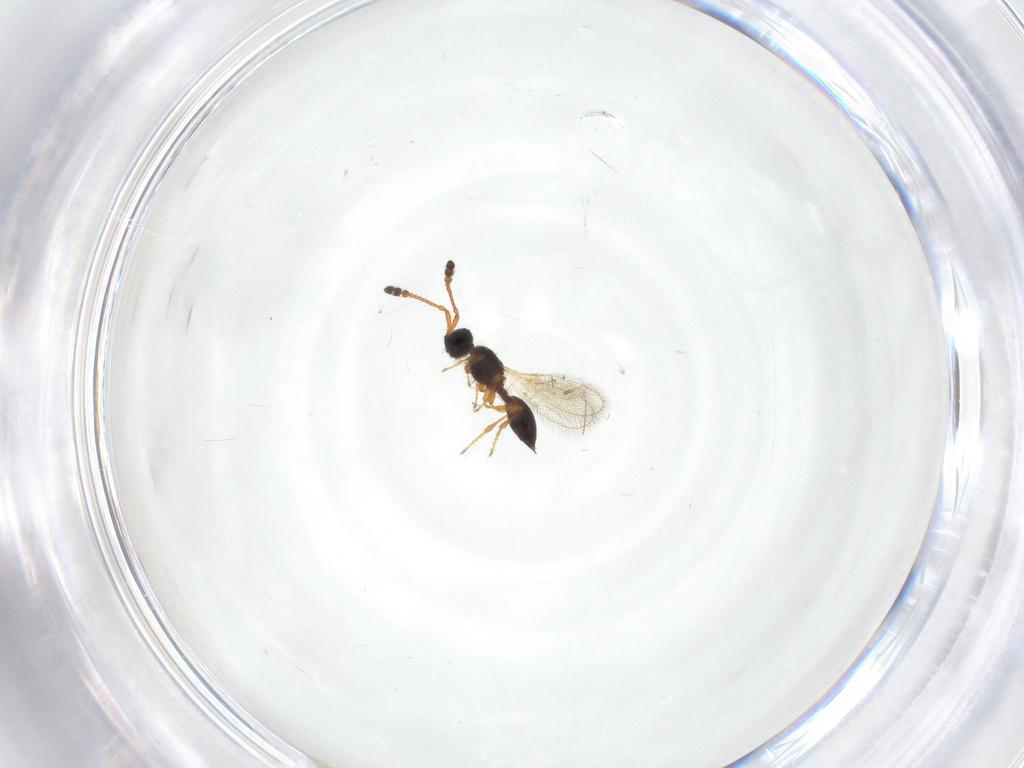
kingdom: Animalia
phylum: Arthropoda
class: Insecta
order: Hymenoptera
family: Diapriidae
